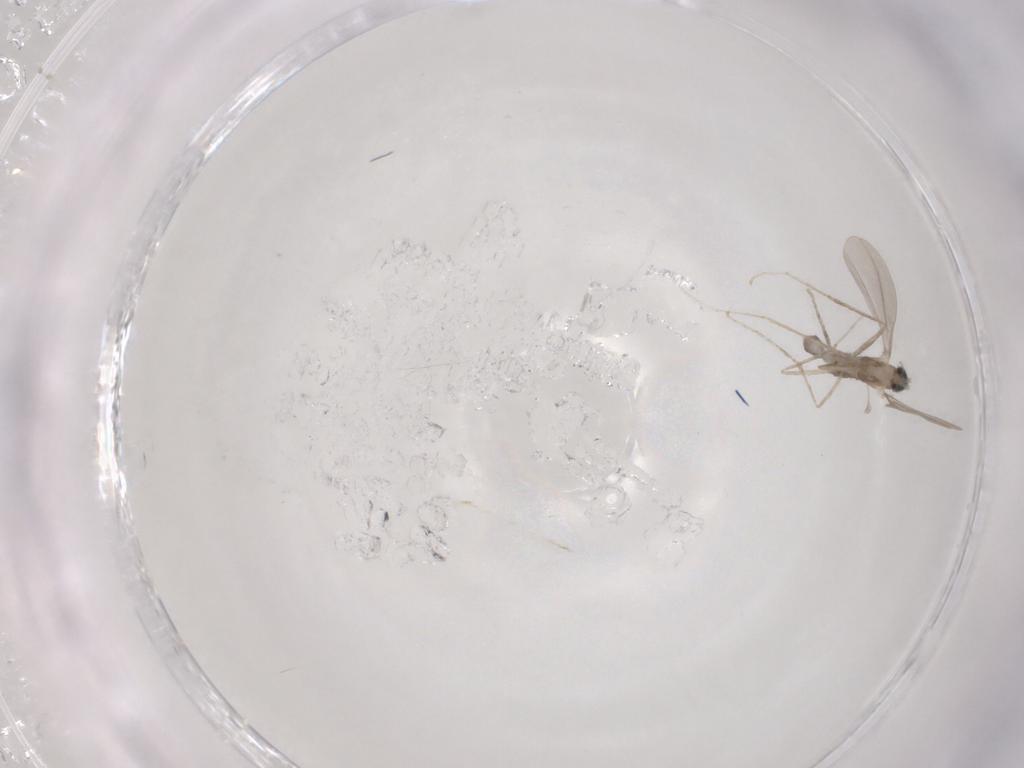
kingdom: Animalia
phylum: Arthropoda
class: Insecta
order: Diptera
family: Cecidomyiidae
